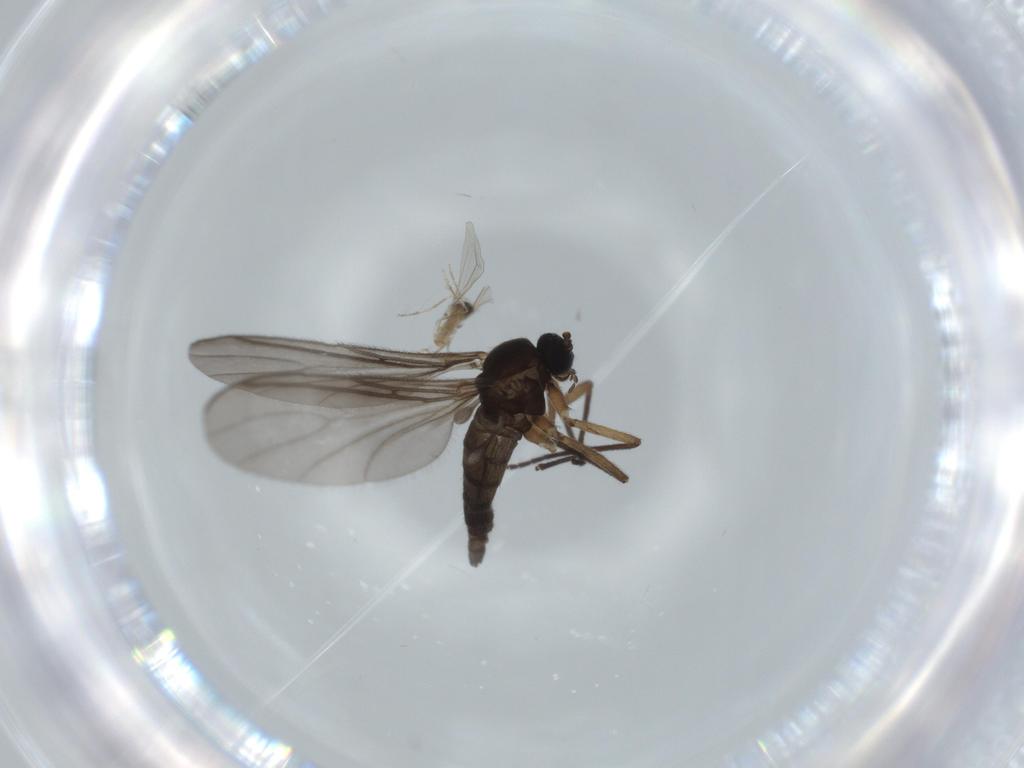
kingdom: Animalia
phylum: Arthropoda
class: Insecta
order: Diptera
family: Sciaridae
